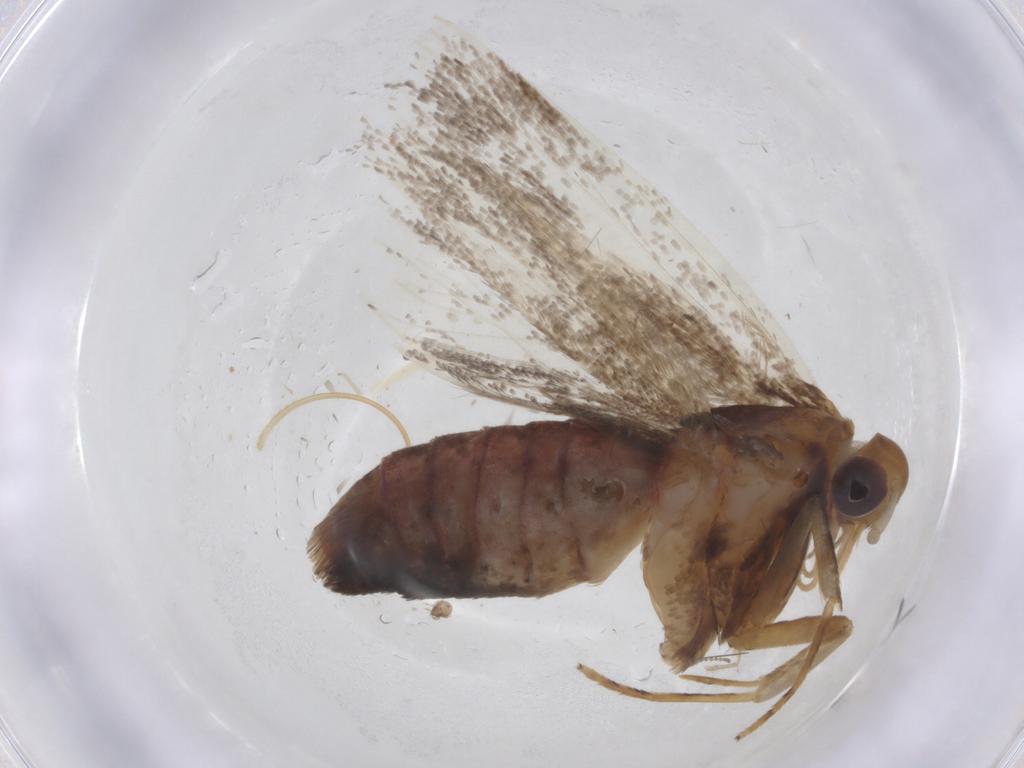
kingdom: Animalia
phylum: Arthropoda
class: Insecta
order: Lepidoptera
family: Lecithoceridae
